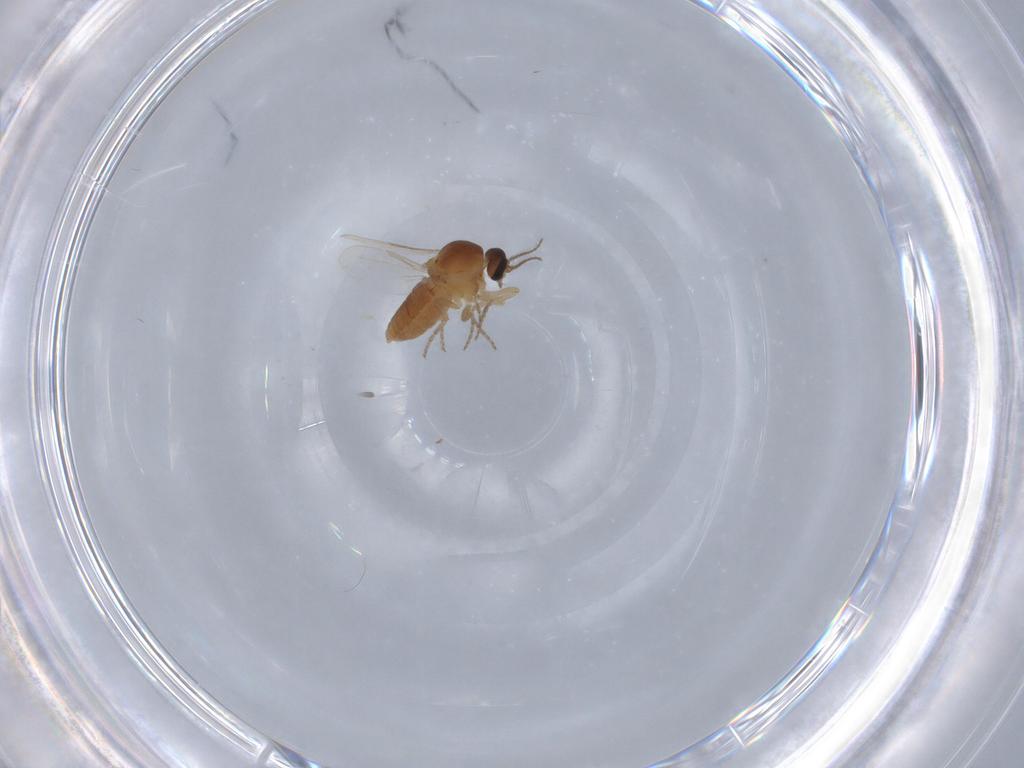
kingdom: Animalia
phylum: Arthropoda
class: Insecta
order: Diptera
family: Ceratopogonidae
